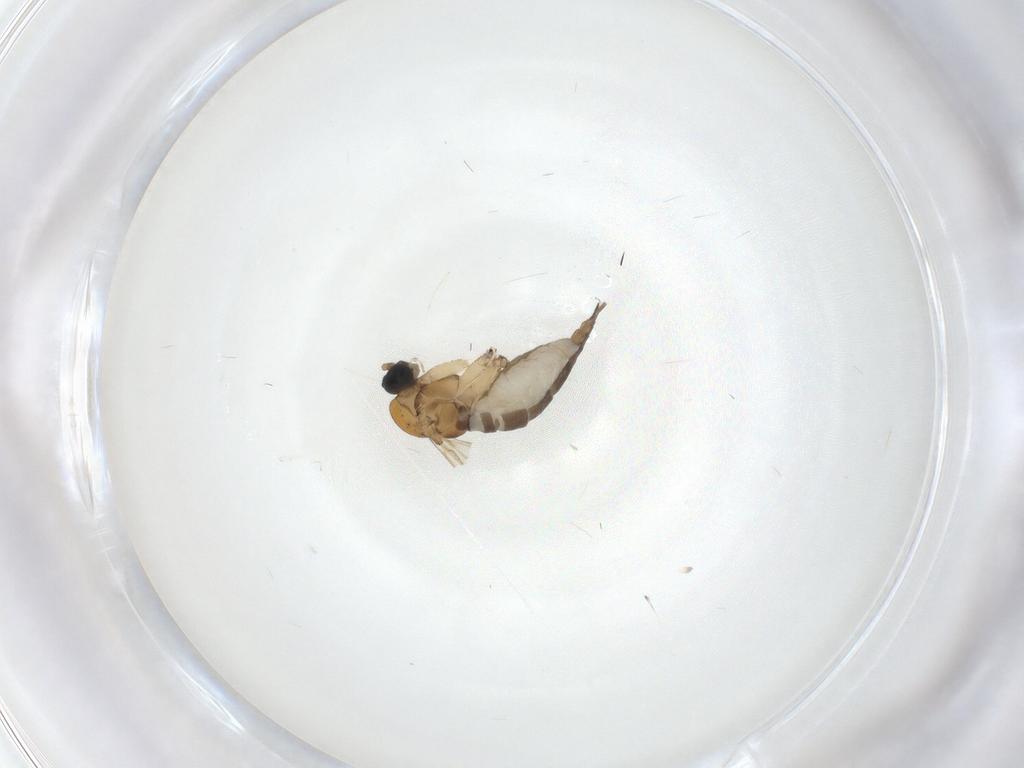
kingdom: Animalia
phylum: Arthropoda
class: Insecta
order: Diptera
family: Sciaridae
